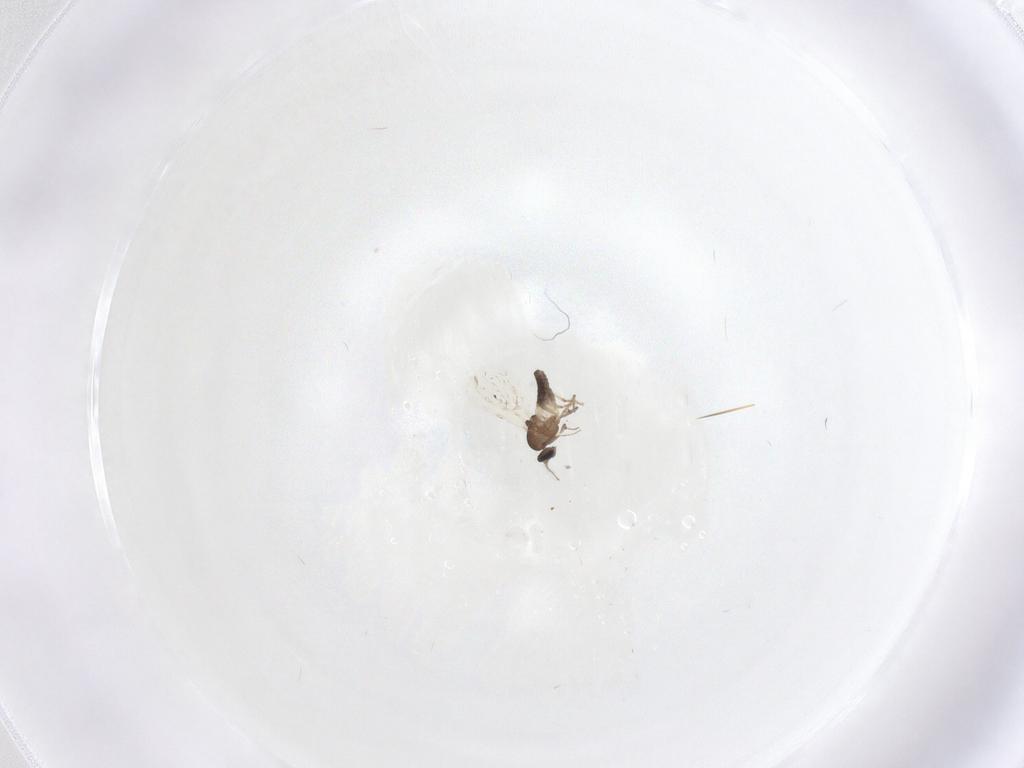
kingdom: Animalia
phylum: Arthropoda
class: Insecta
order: Diptera
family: Ceratopogonidae
